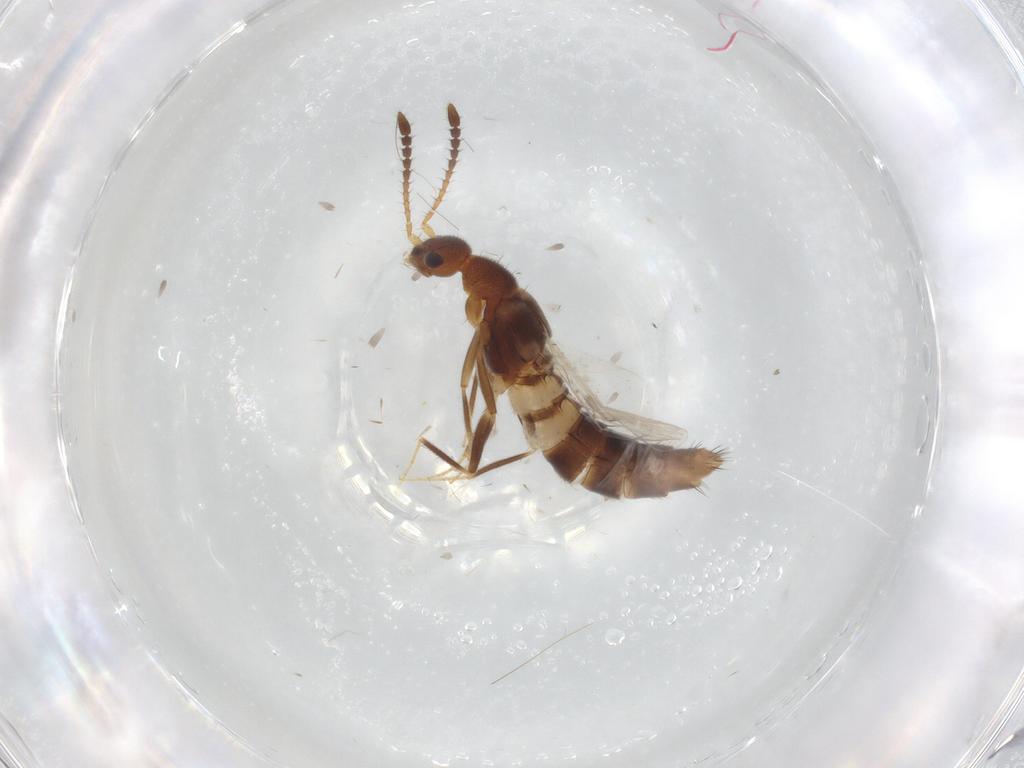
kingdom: Animalia
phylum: Arthropoda
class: Insecta
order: Coleoptera
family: Staphylinidae
